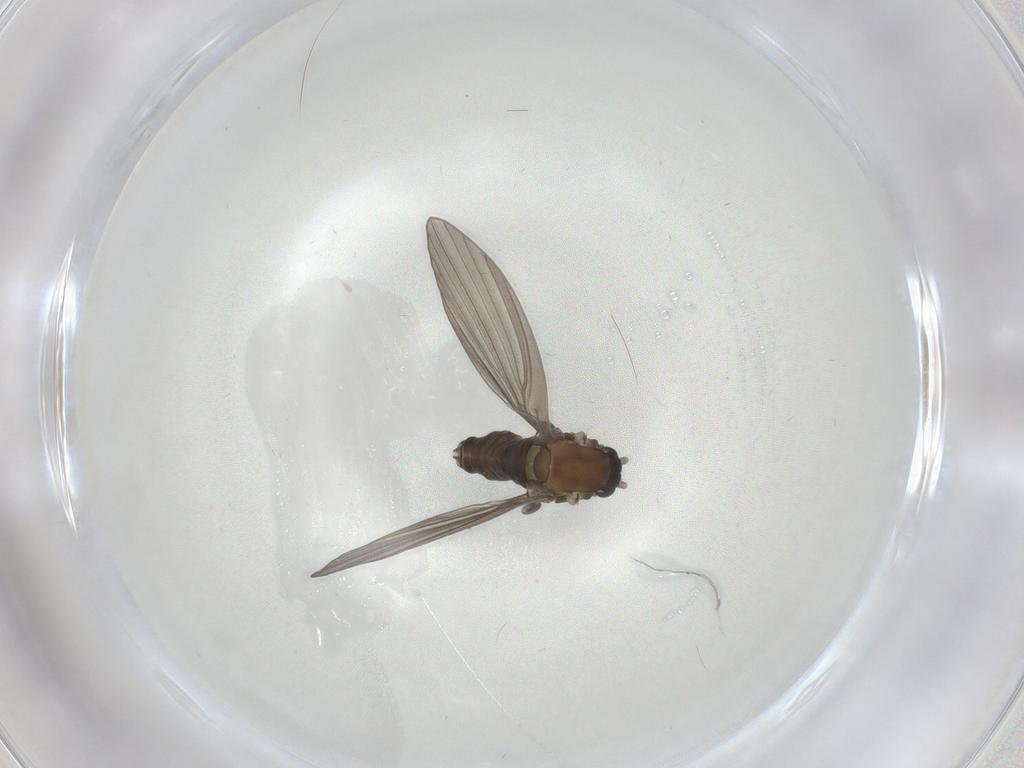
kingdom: Animalia
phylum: Arthropoda
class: Insecta
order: Diptera
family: Psychodidae
